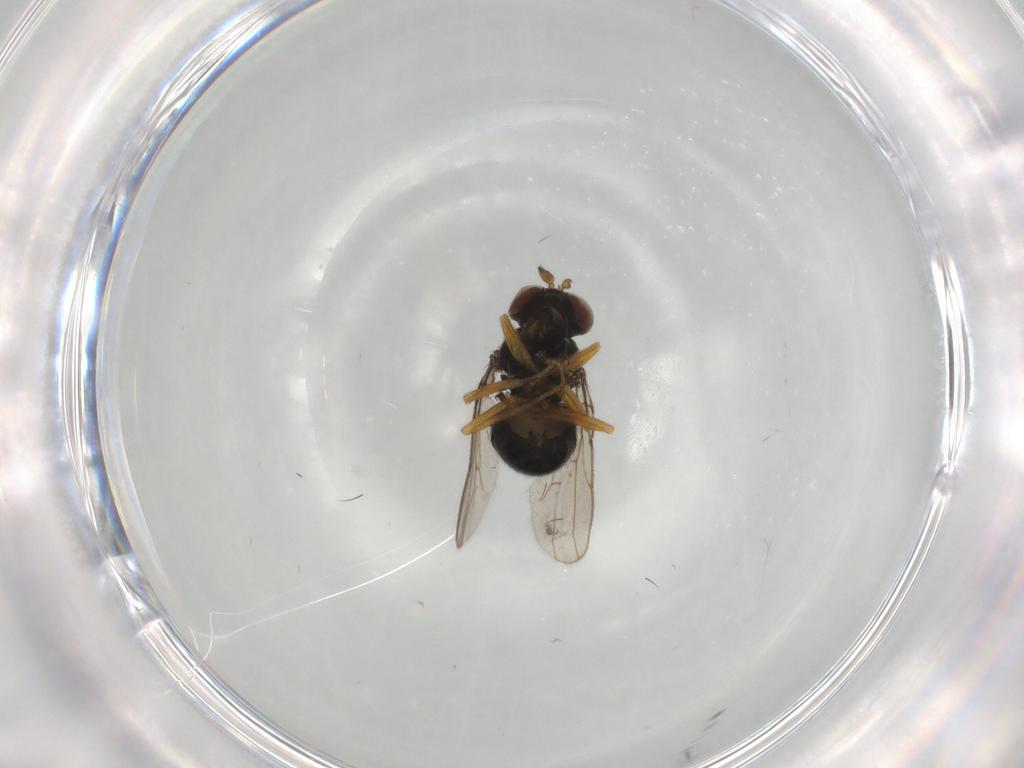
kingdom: Animalia
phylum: Arthropoda
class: Insecta
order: Diptera
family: Ephydridae
